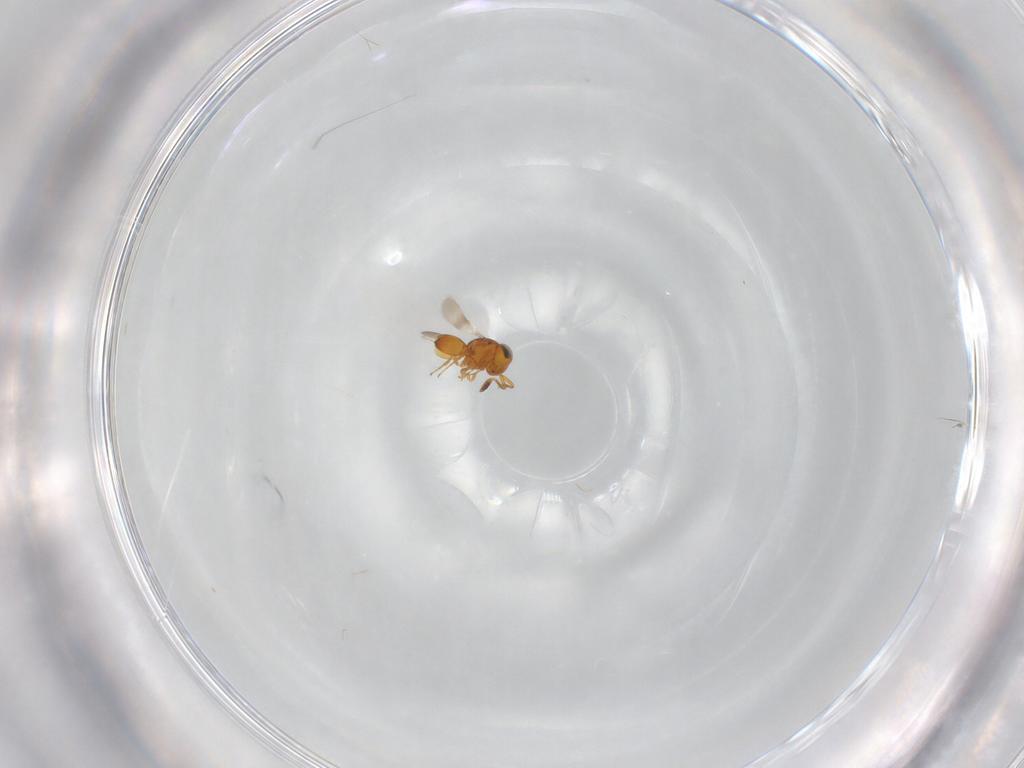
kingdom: Animalia
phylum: Arthropoda
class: Insecta
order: Hymenoptera
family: Scelionidae
